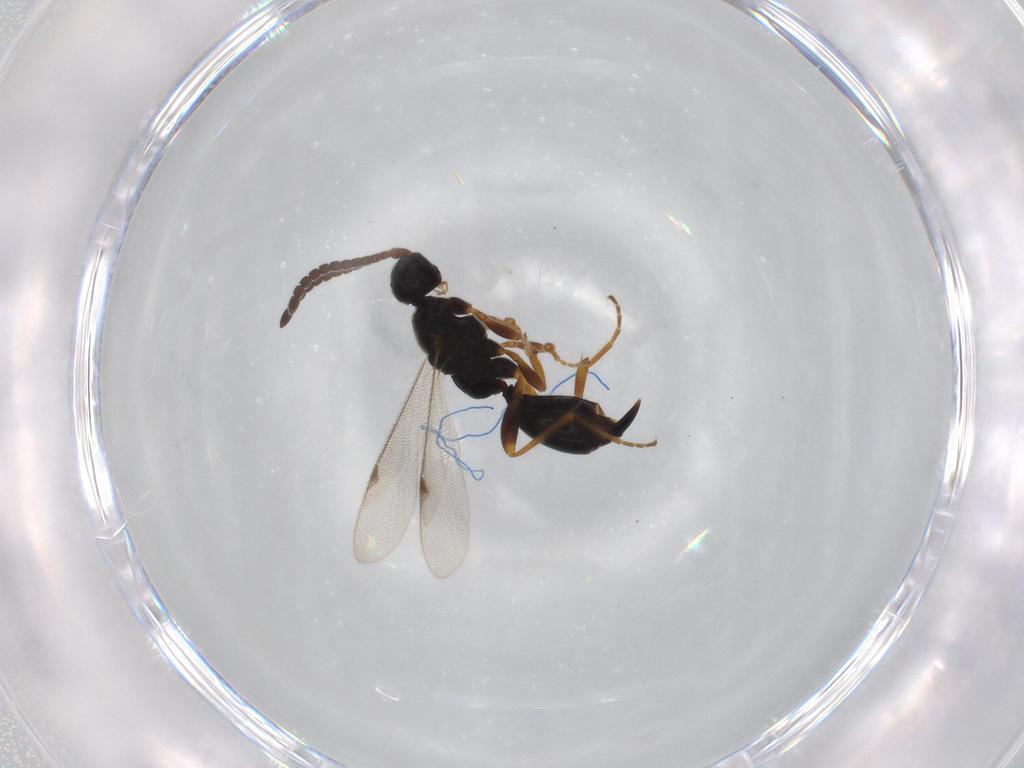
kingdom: Animalia
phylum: Arthropoda
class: Insecta
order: Hymenoptera
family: Proctotrupidae
